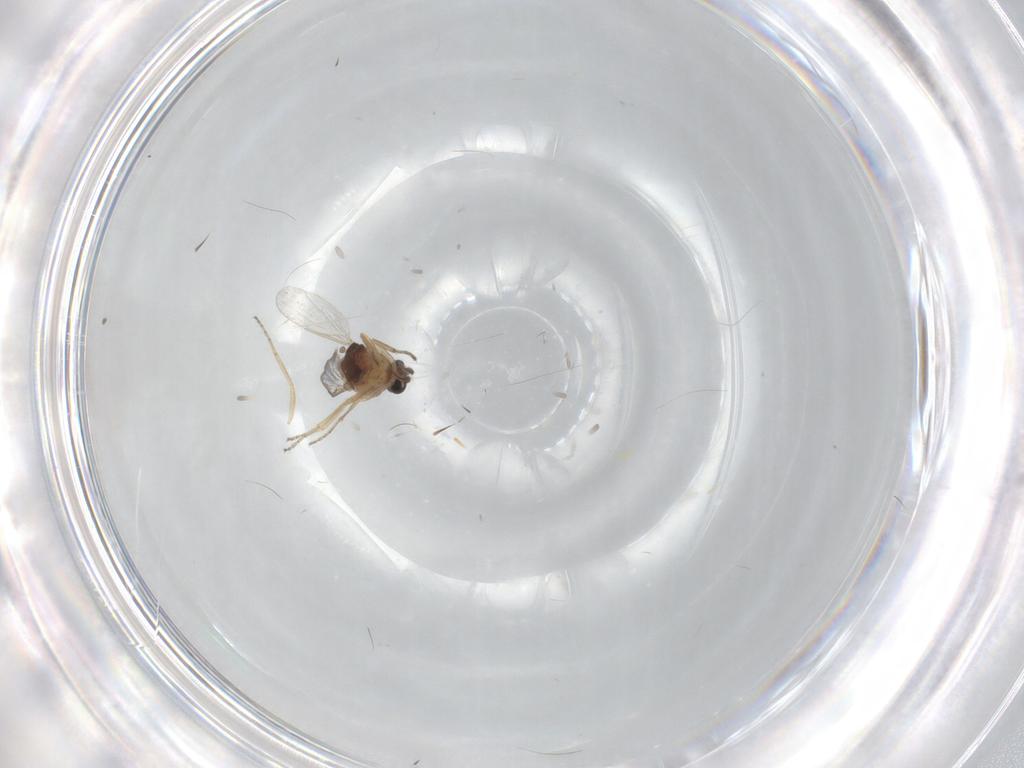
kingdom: Animalia
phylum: Arthropoda
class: Insecta
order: Diptera
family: Ceratopogonidae
